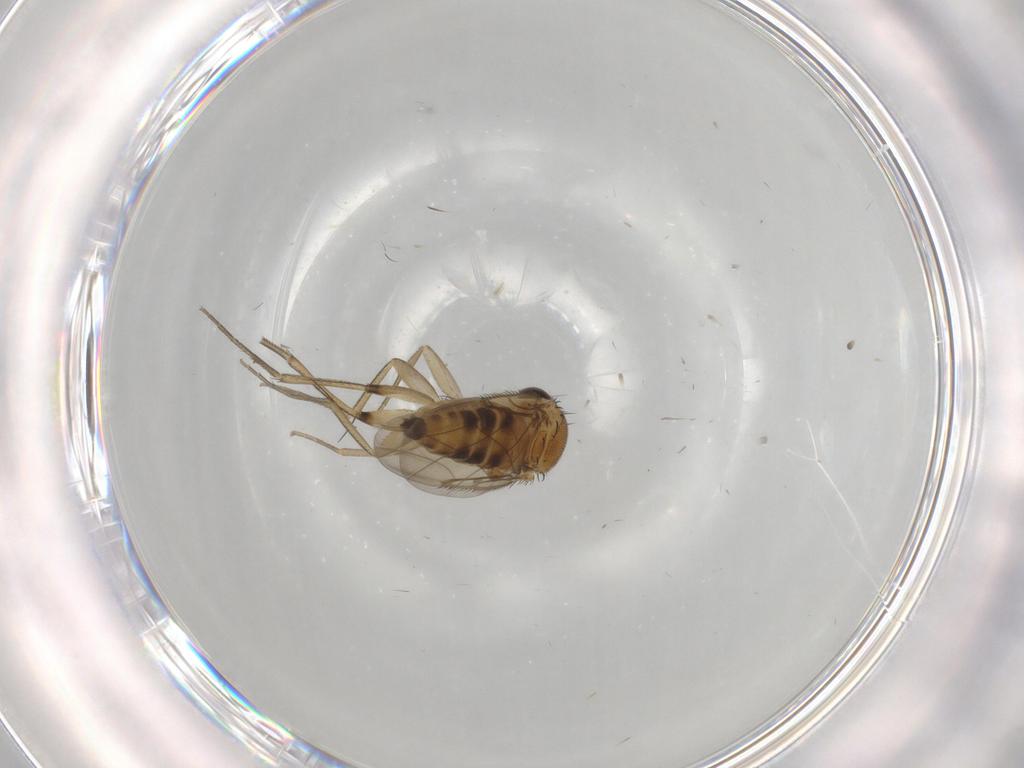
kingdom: Animalia
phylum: Arthropoda
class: Insecta
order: Diptera
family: Phoridae
